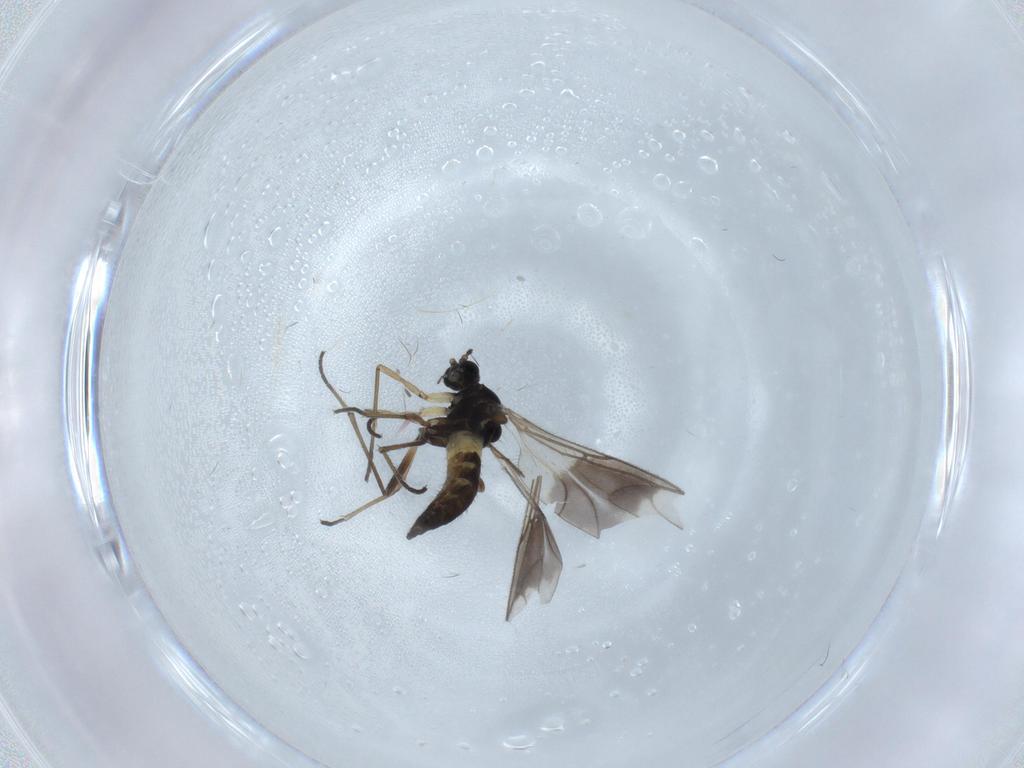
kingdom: Animalia
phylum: Arthropoda
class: Insecta
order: Diptera
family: Sciaridae
